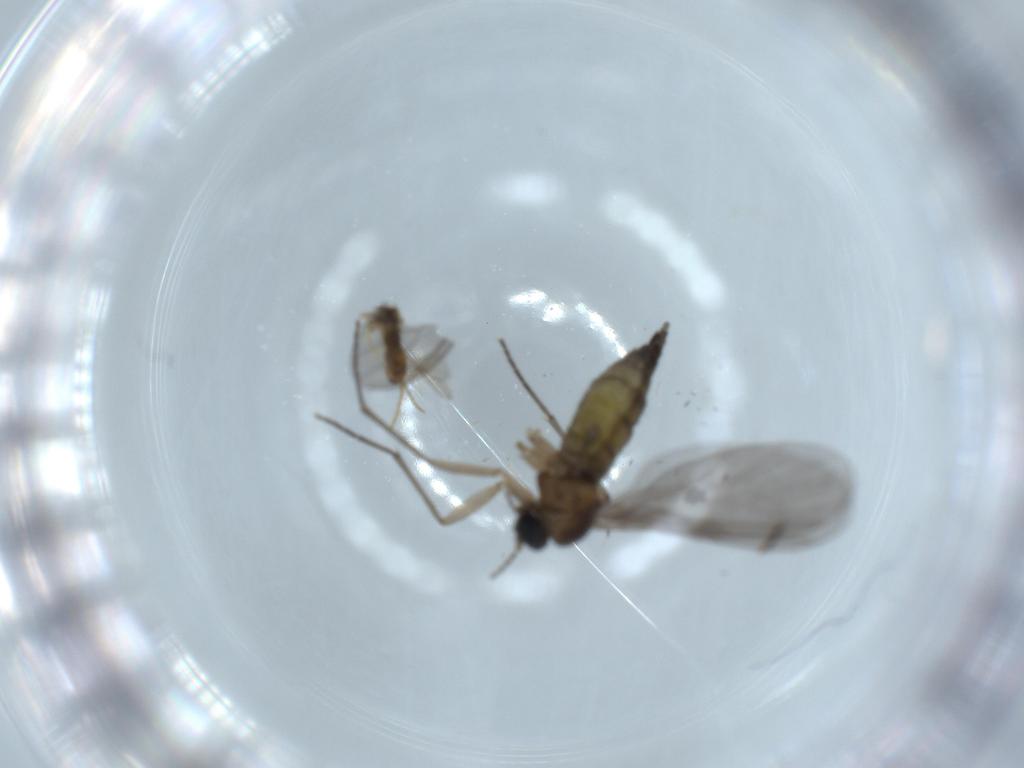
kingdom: Animalia
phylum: Arthropoda
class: Insecta
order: Diptera
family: Sciaridae
